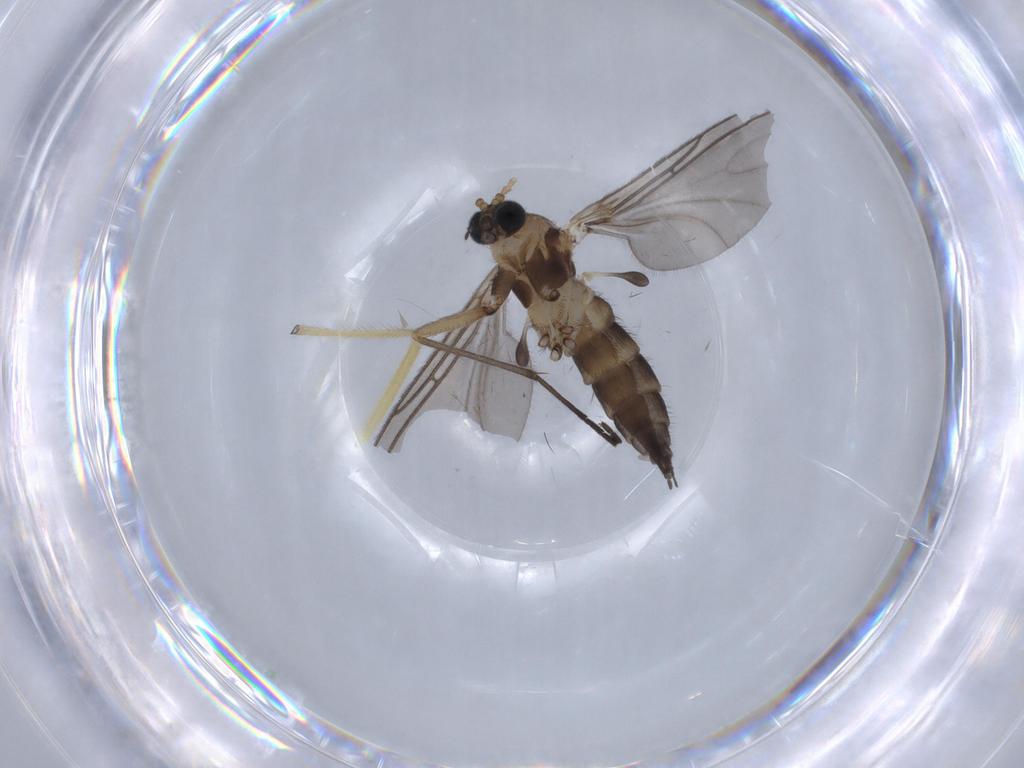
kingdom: Animalia
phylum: Arthropoda
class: Insecta
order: Diptera
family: Sciaridae
